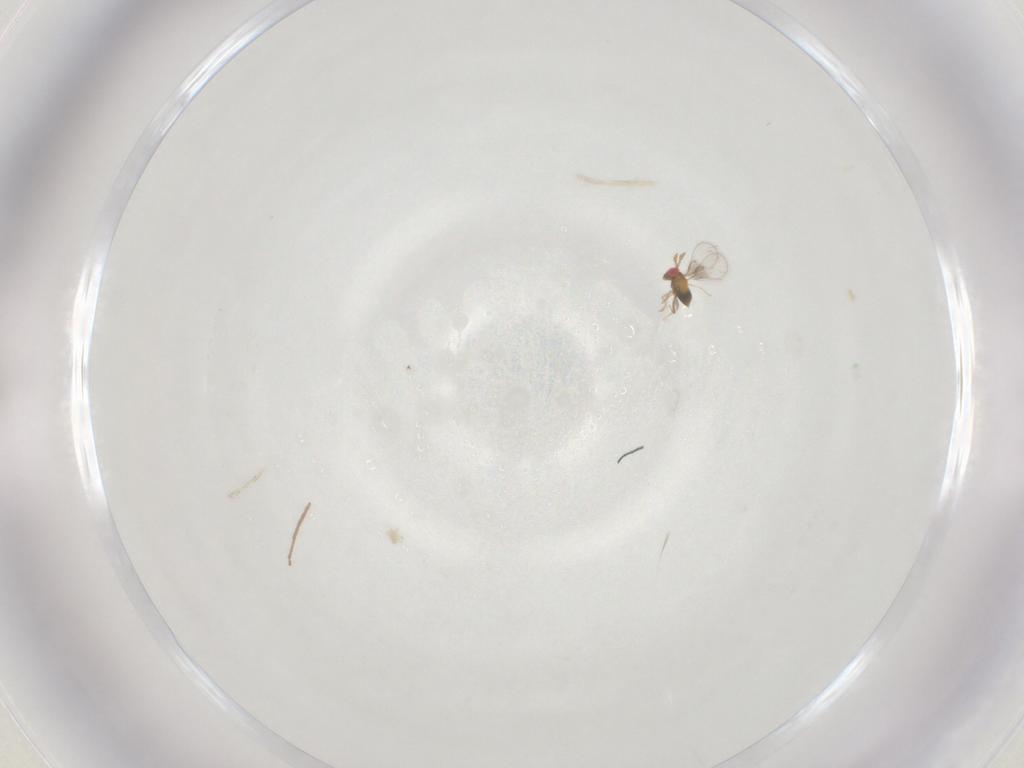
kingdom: Animalia
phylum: Arthropoda
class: Insecta
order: Hymenoptera
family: Trichogrammatidae
